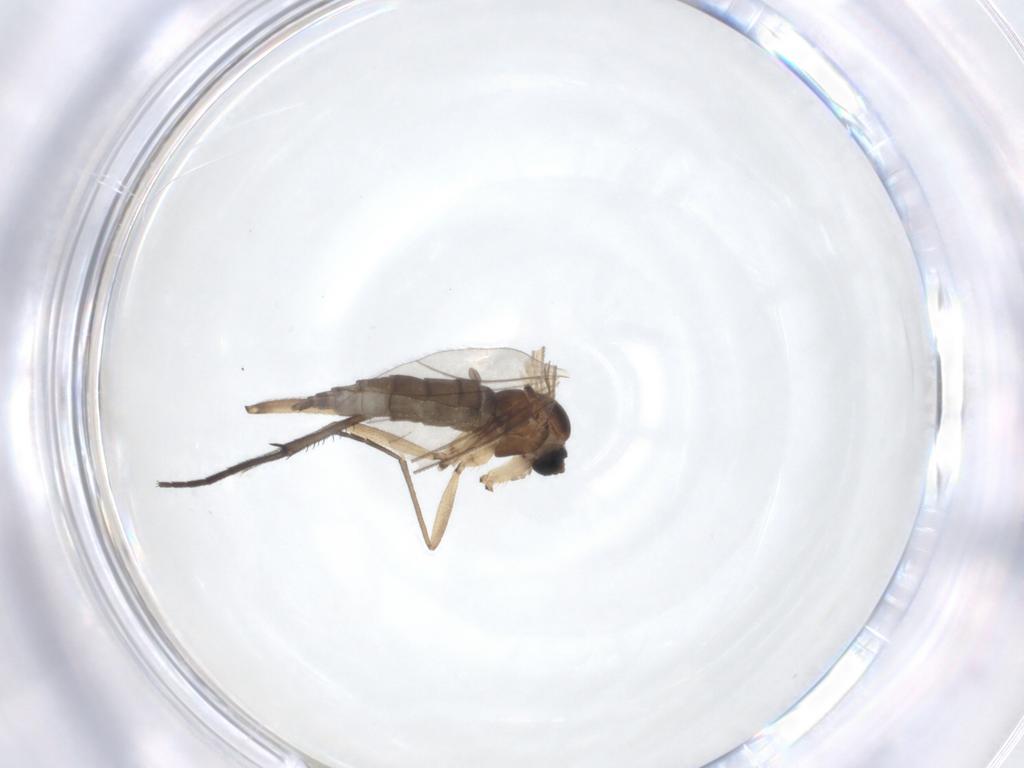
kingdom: Animalia
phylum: Arthropoda
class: Insecta
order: Diptera
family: Sciaridae
